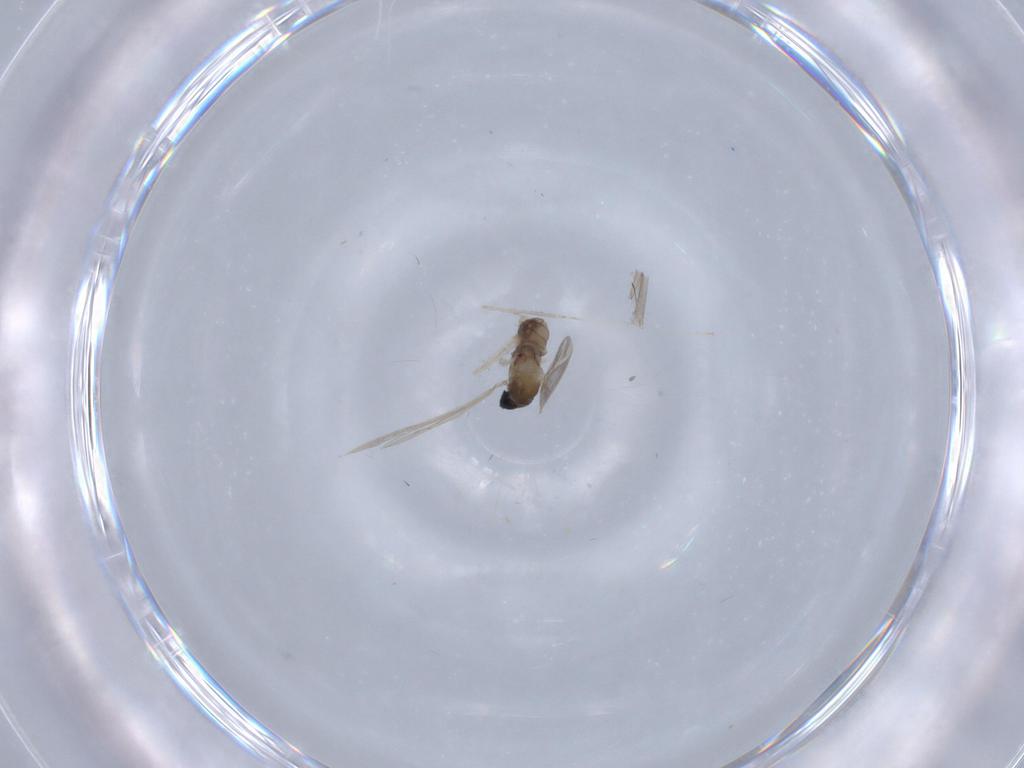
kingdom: Animalia
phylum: Arthropoda
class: Insecta
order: Diptera
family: Cecidomyiidae
